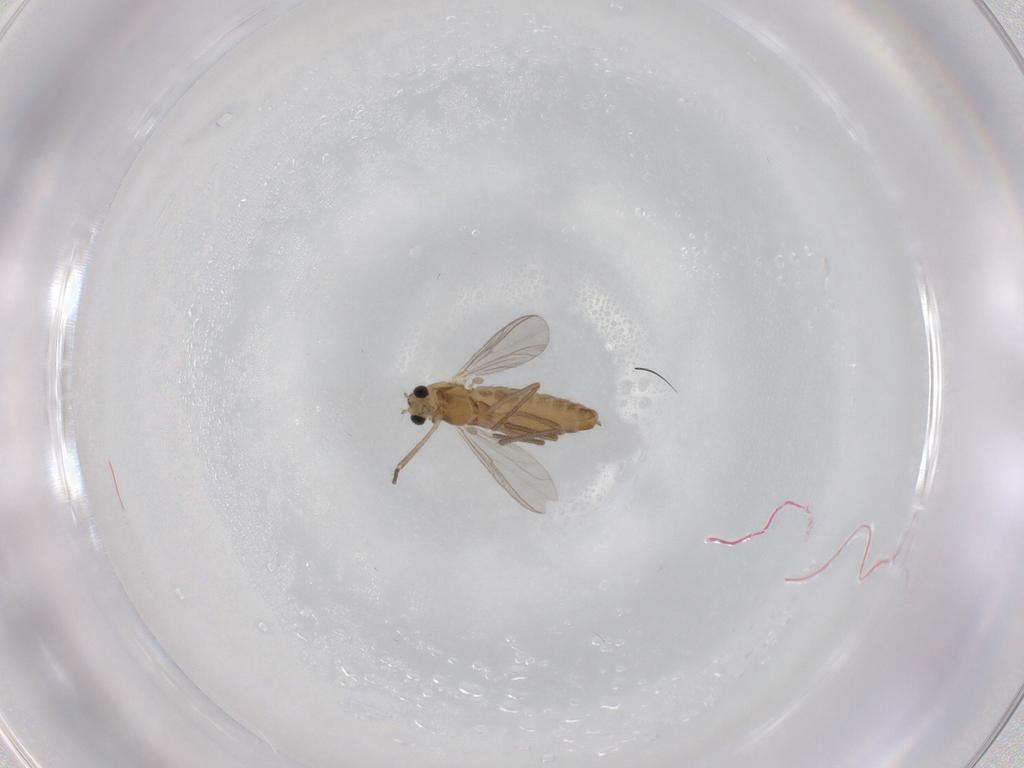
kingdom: Animalia
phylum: Arthropoda
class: Insecta
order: Diptera
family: Chironomidae
